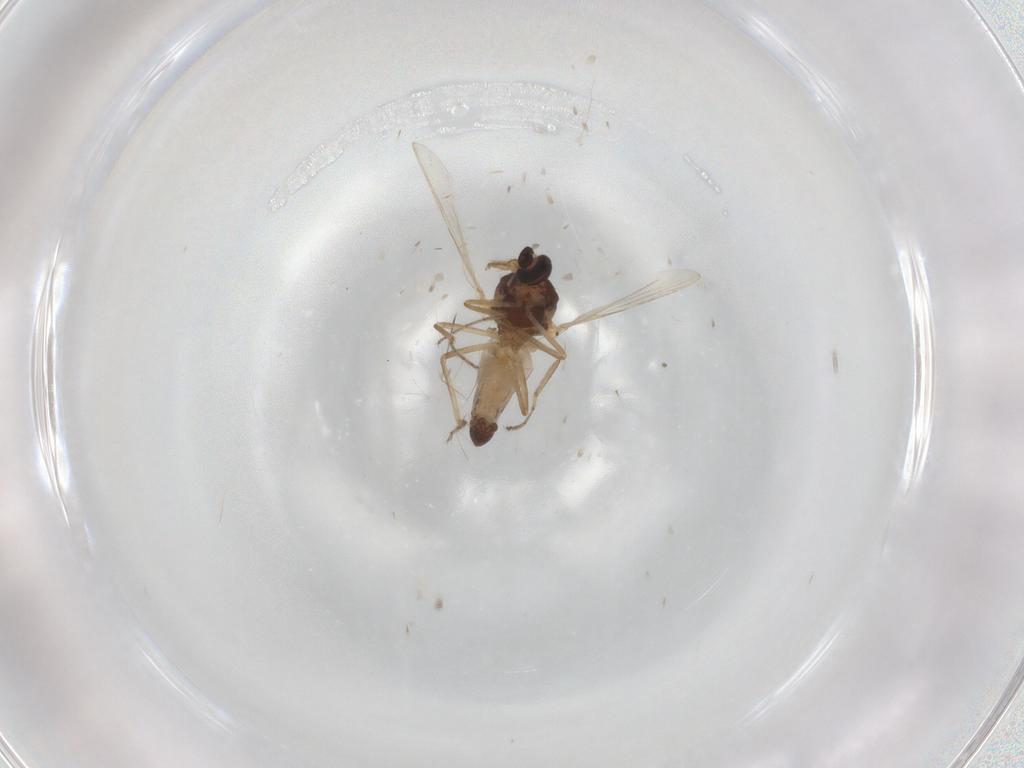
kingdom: Animalia
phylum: Arthropoda
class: Insecta
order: Diptera
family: Ceratopogonidae
